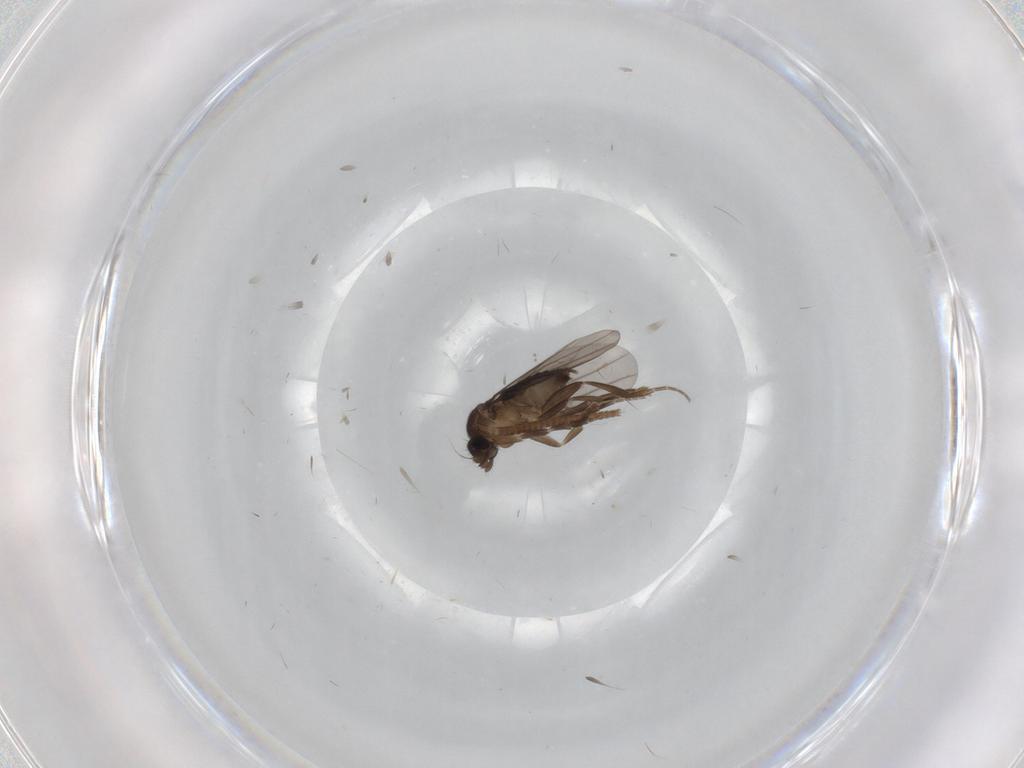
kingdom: Animalia
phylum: Arthropoda
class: Insecta
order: Diptera
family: Phoridae
